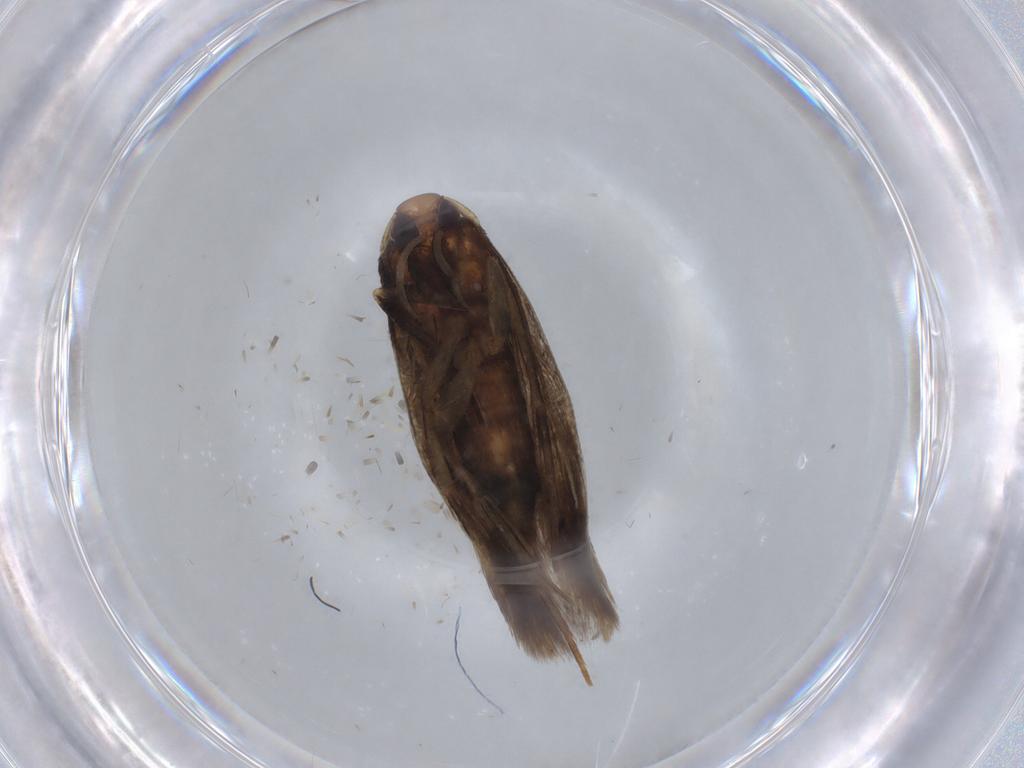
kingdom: Animalia
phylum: Arthropoda
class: Insecta
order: Lepidoptera
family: Cosmopterigidae
